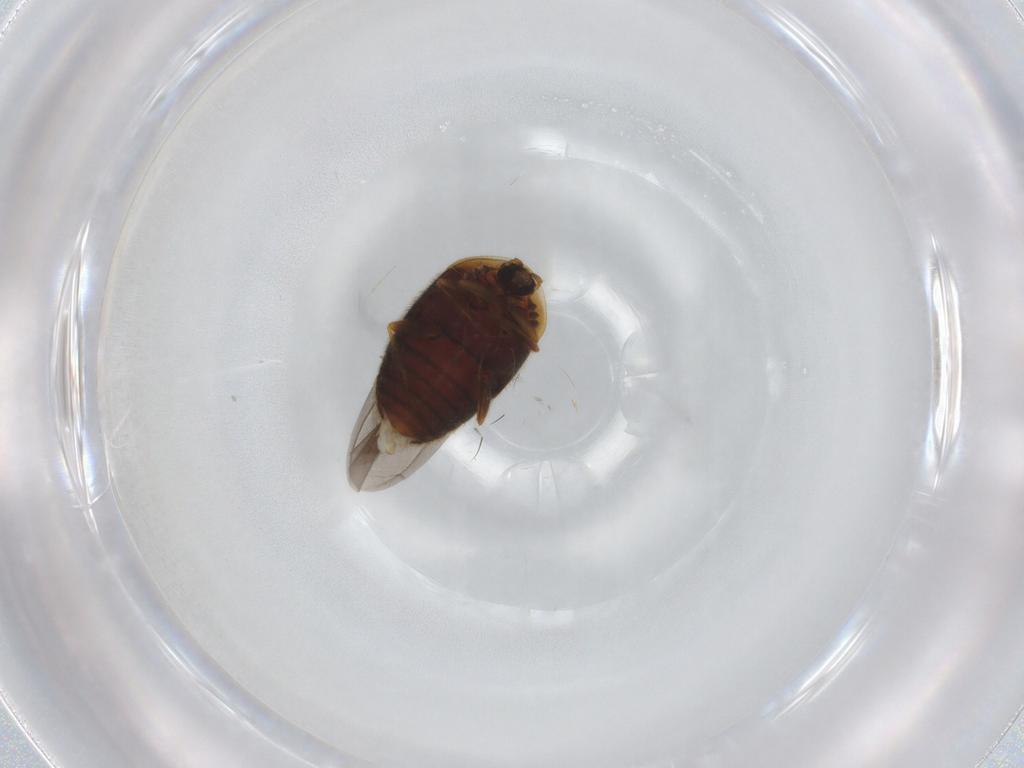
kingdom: Animalia
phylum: Arthropoda
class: Insecta
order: Coleoptera
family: Corylophidae
